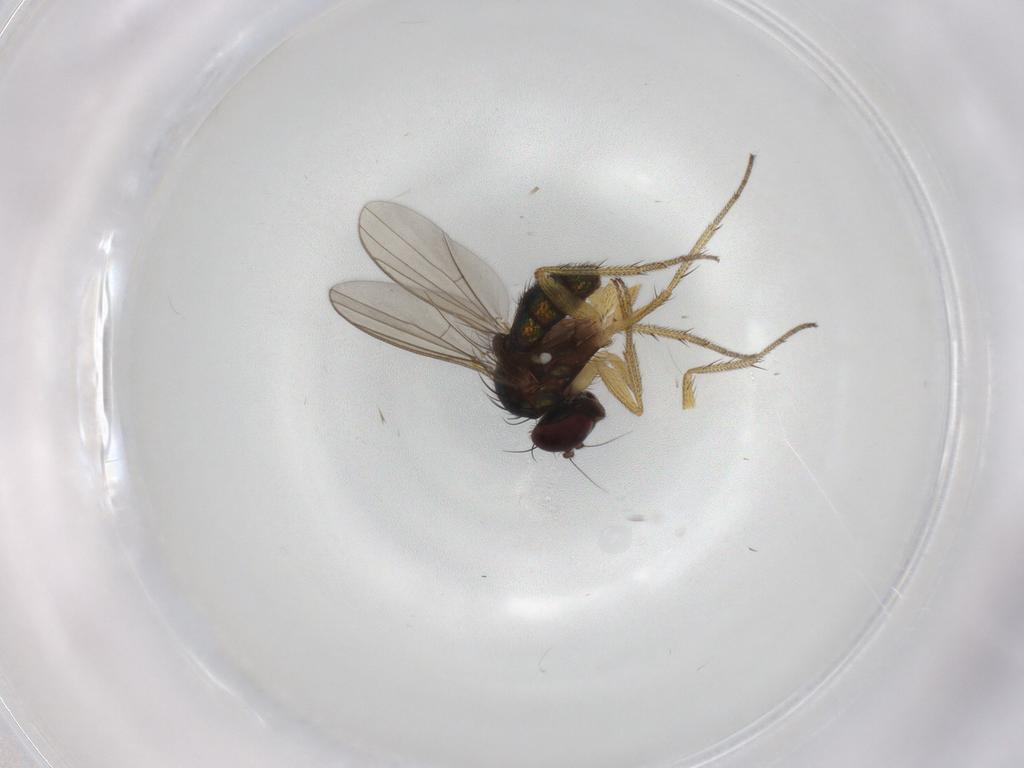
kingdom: Animalia
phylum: Arthropoda
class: Insecta
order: Diptera
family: Dolichopodidae
